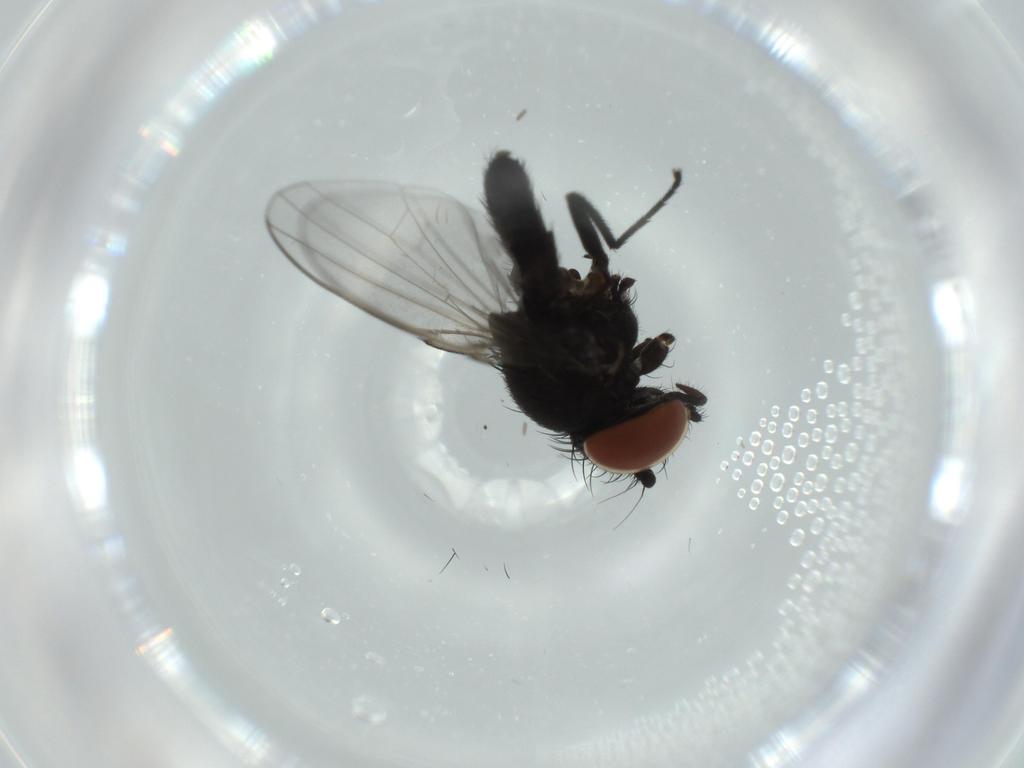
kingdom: Animalia
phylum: Arthropoda
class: Insecta
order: Diptera
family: Milichiidae
